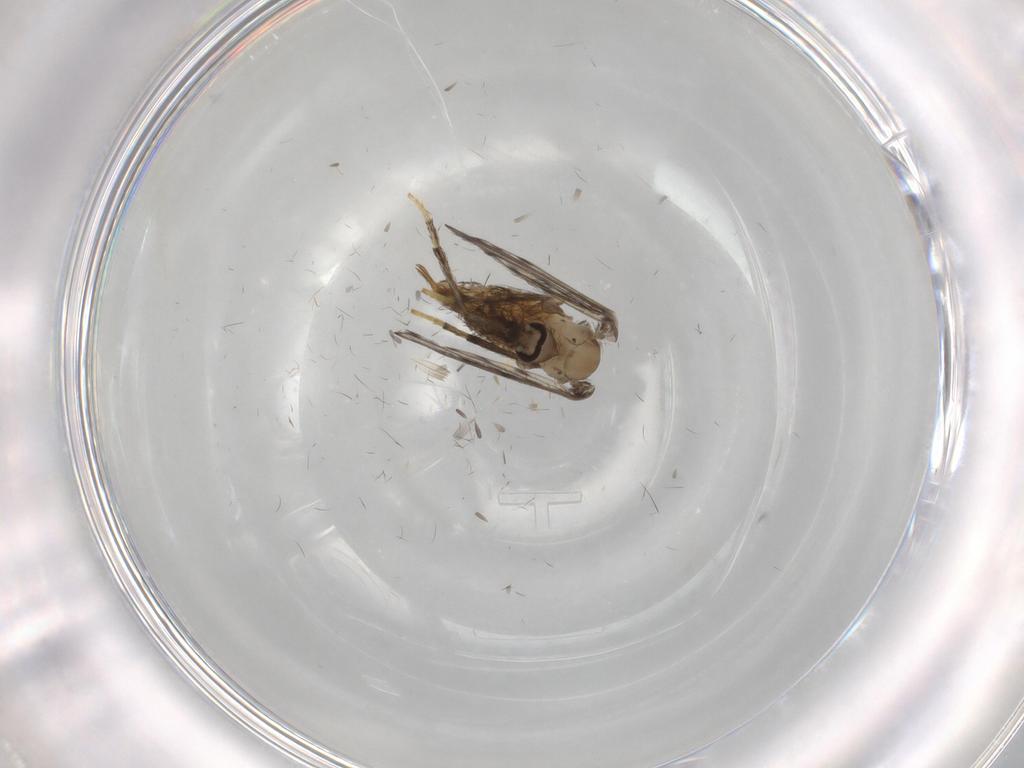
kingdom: Animalia
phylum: Arthropoda
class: Insecta
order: Diptera
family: Psychodidae
